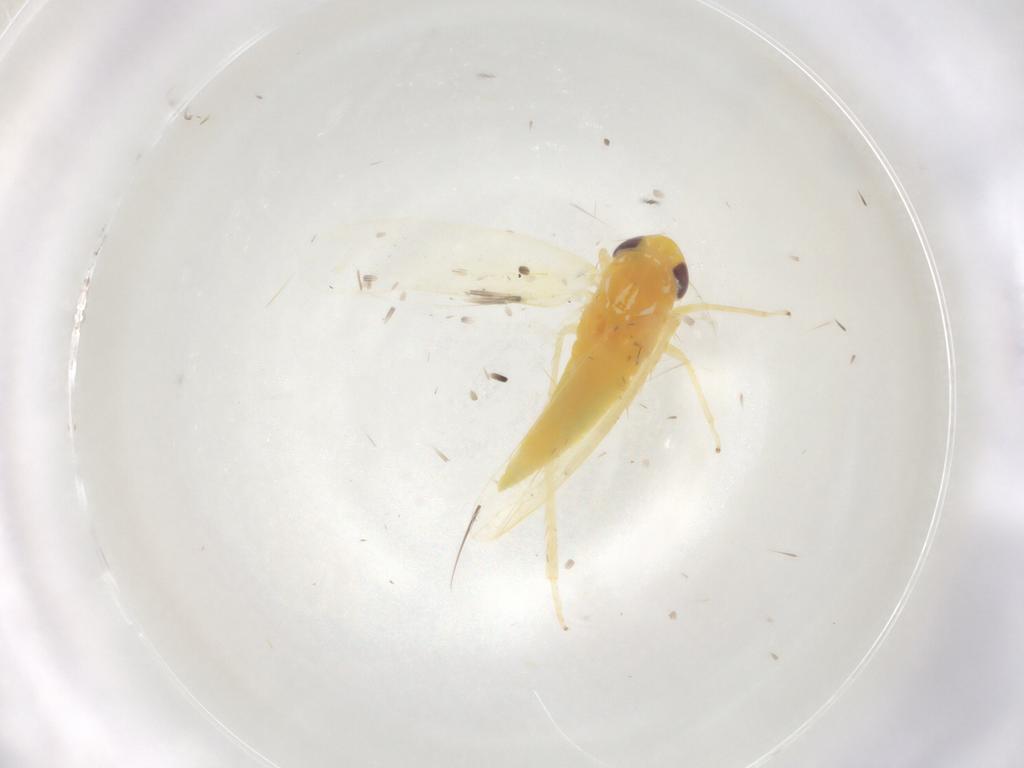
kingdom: Animalia
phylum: Arthropoda
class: Insecta
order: Hemiptera
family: Cicadellidae
